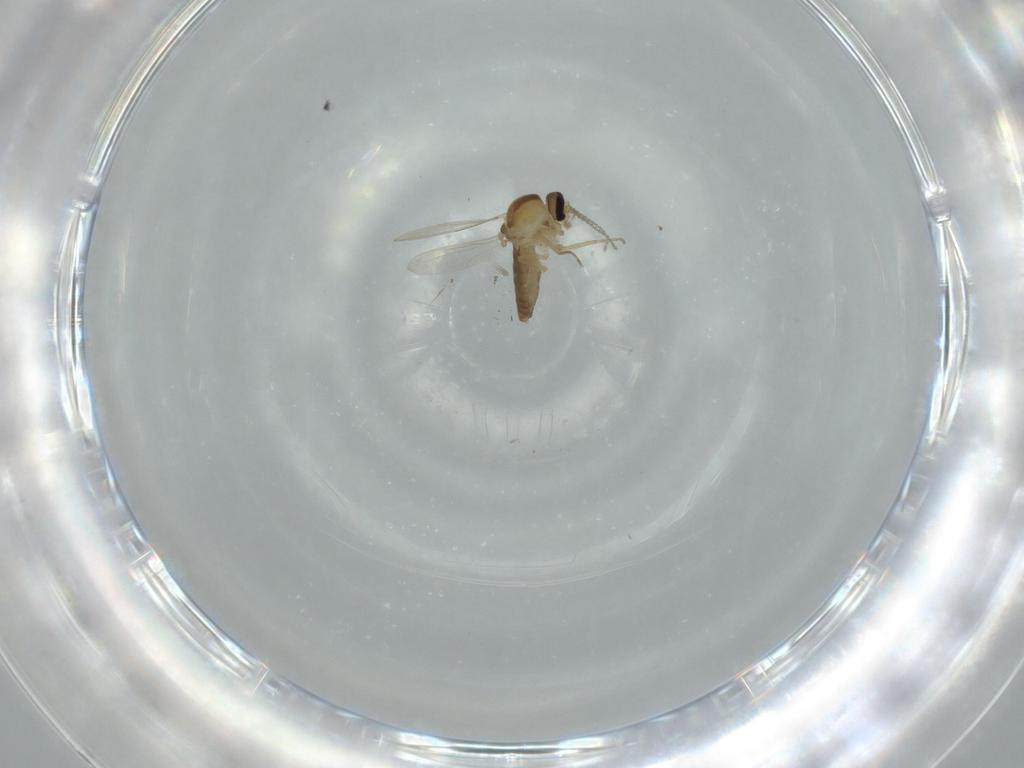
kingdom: Animalia
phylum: Arthropoda
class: Insecta
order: Diptera
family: Ceratopogonidae
